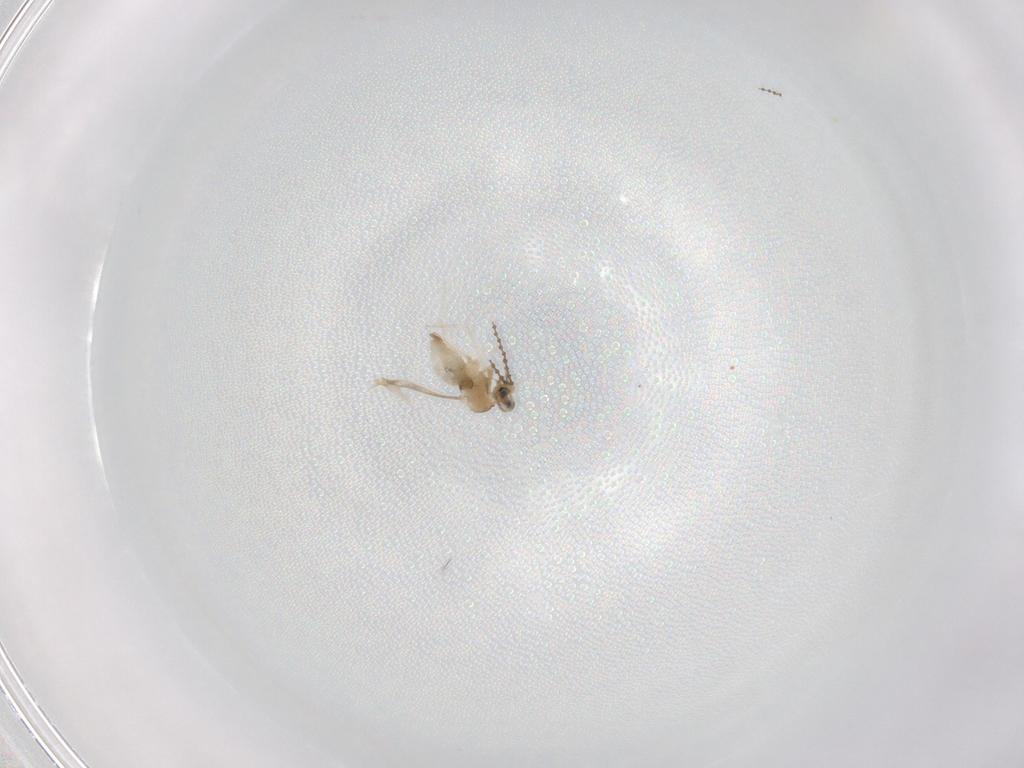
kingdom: Animalia
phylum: Arthropoda
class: Insecta
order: Diptera
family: Cecidomyiidae
